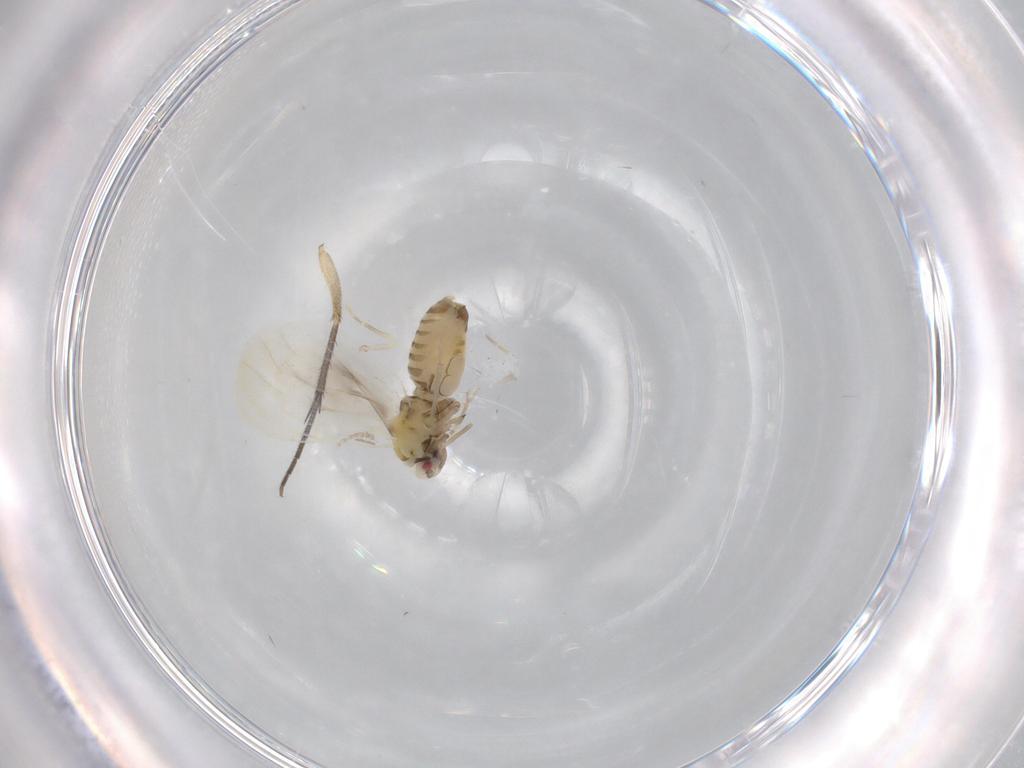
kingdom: Animalia
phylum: Arthropoda
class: Insecta
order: Hemiptera
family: Aleyrodidae
